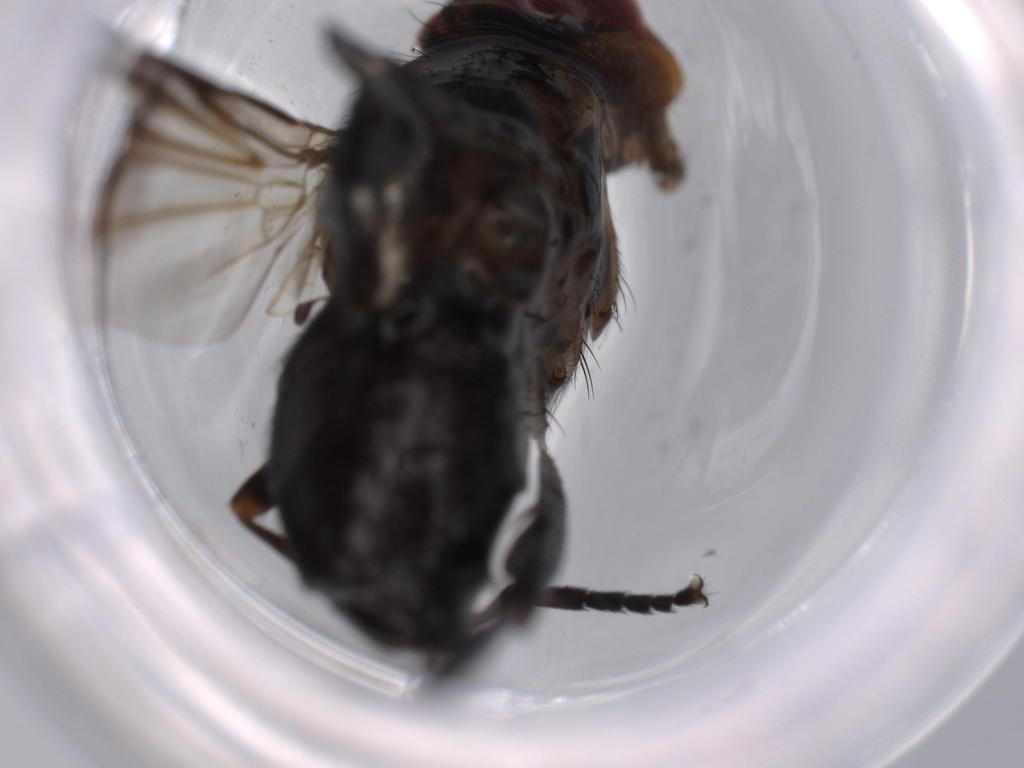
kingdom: Animalia
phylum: Arthropoda
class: Insecta
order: Diptera
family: Calliphoridae
